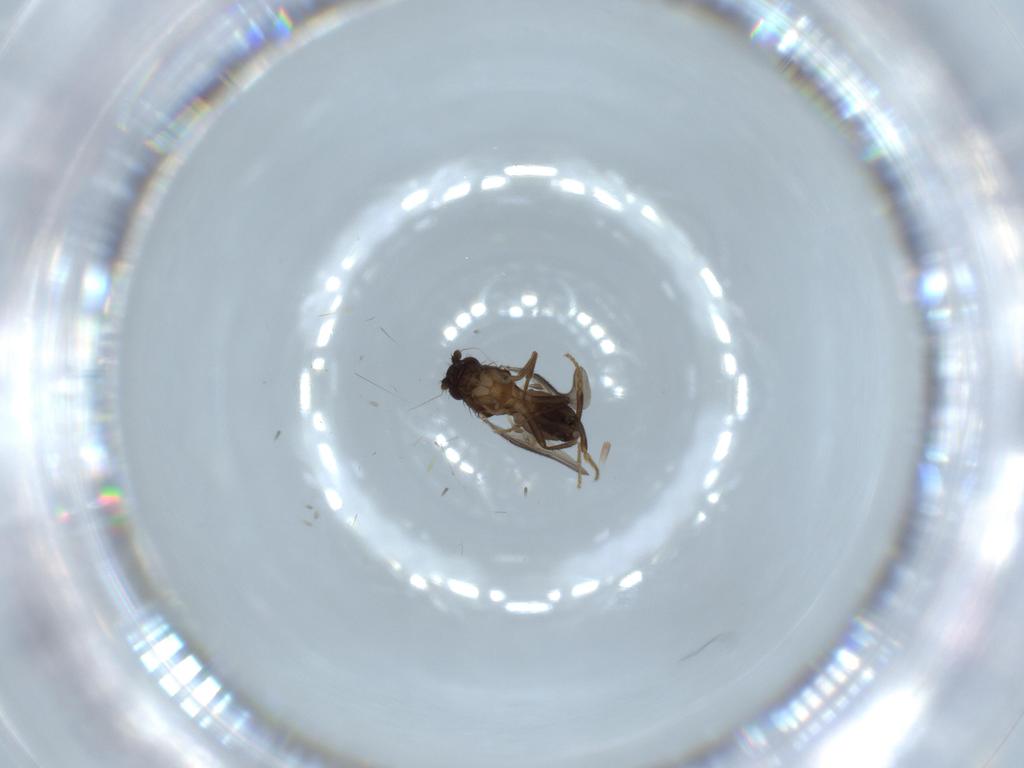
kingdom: Animalia
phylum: Arthropoda
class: Insecta
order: Diptera
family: Sphaeroceridae
